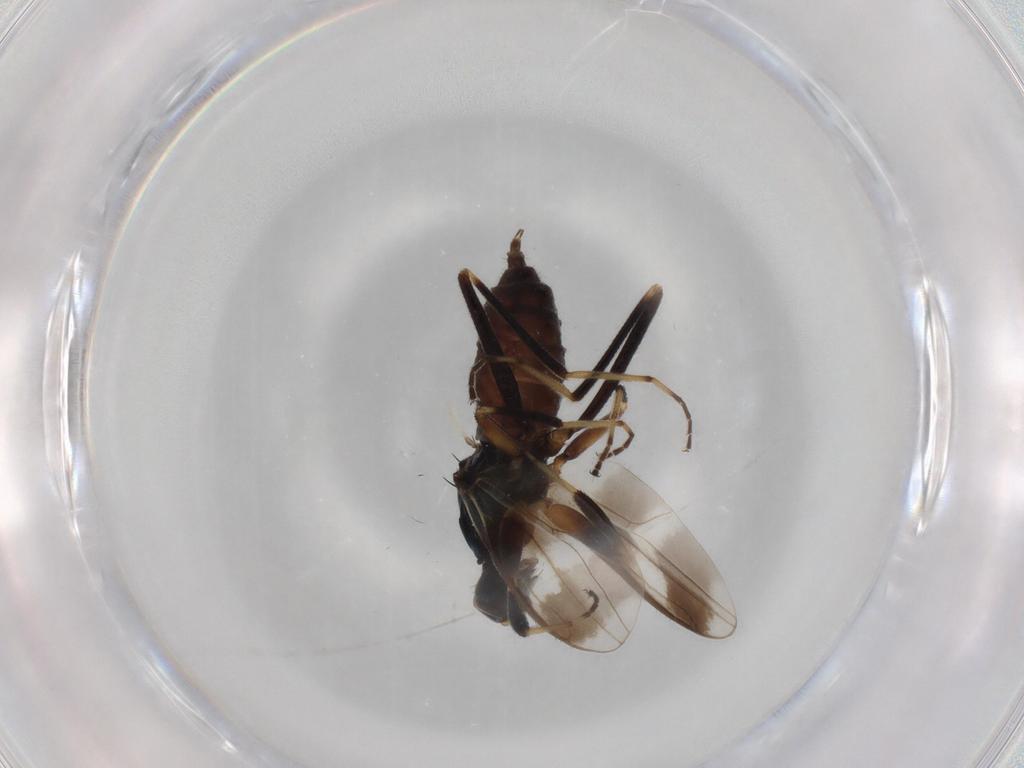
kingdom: Animalia
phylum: Arthropoda
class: Insecta
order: Diptera
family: Hybotidae
